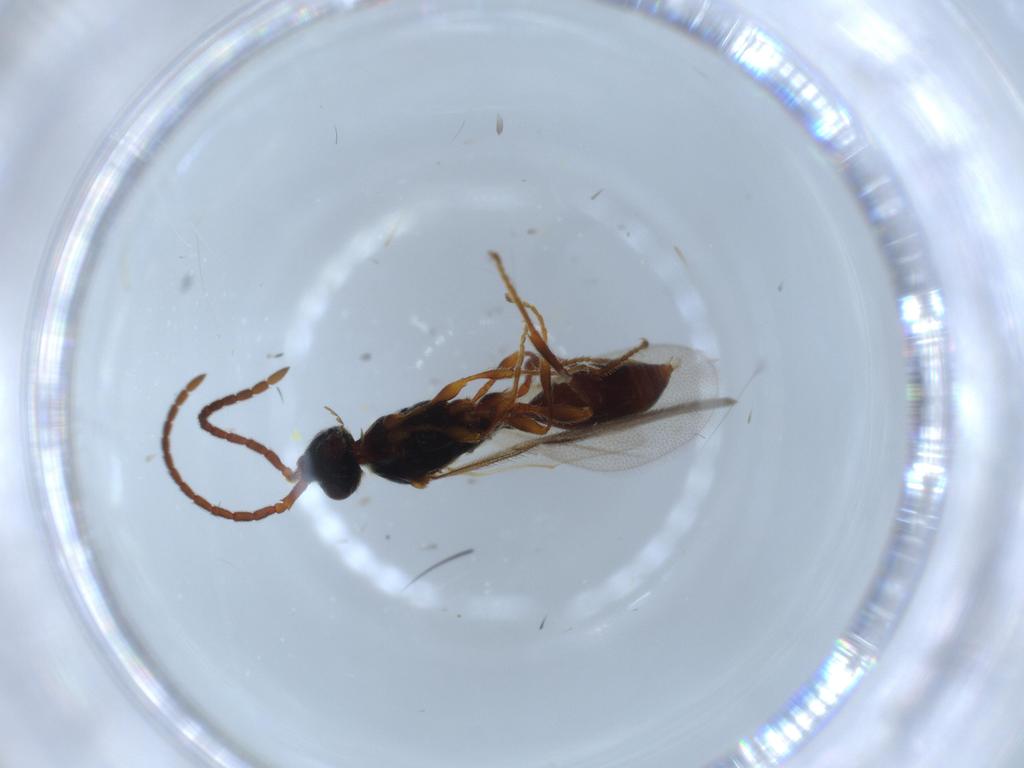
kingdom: Animalia
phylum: Arthropoda
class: Insecta
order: Hymenoptera
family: Diapriidae
